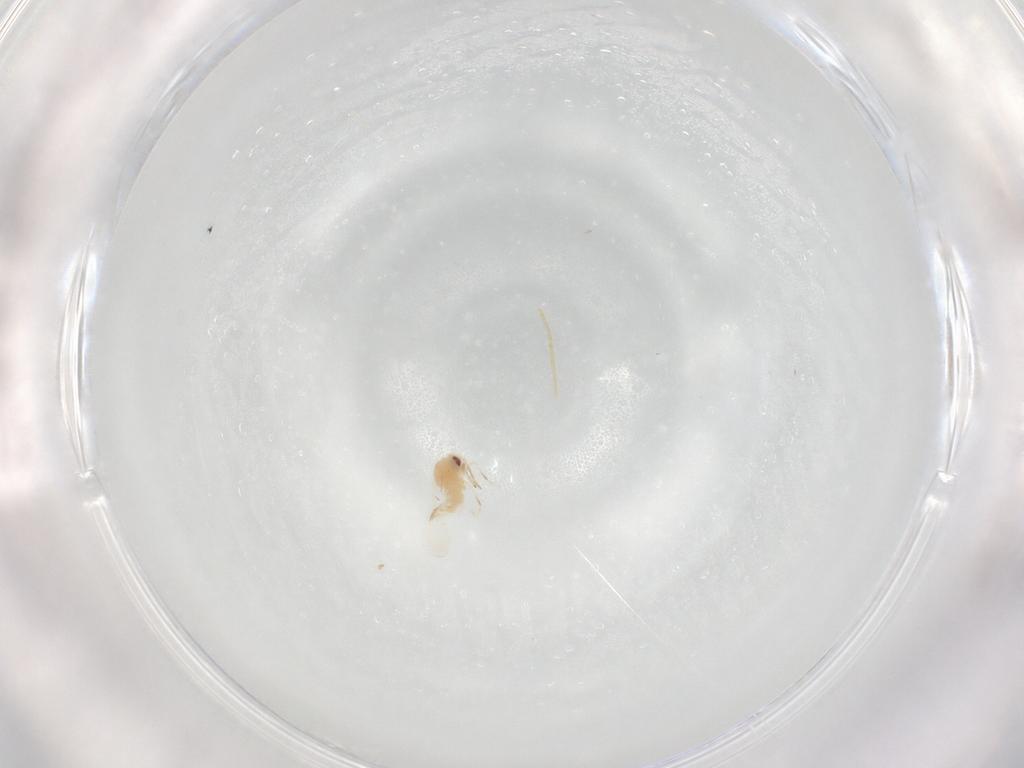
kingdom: Animalia
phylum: Arthropoda
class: Insecta
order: Hemiptera
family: Aleyrodidae
